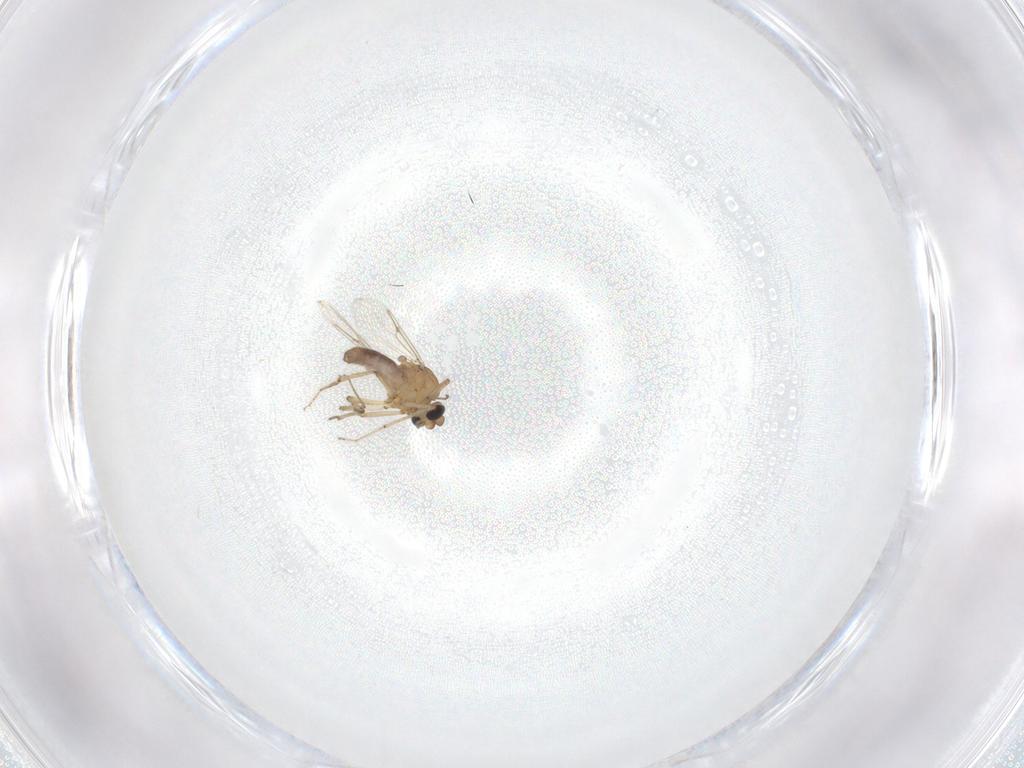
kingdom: Animalia
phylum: Arthropoda
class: Insecta
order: Diptera
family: Ceratopogonidae
